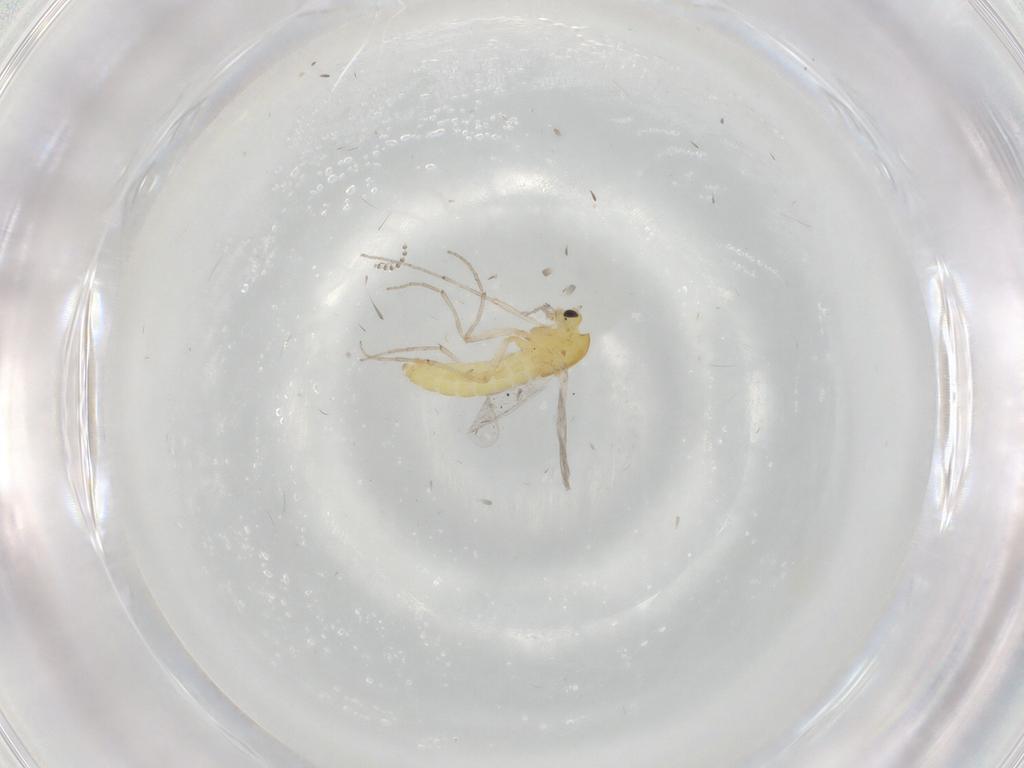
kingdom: Animalia
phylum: Arthropoda
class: Insecta
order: Diptera
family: Chironomidae
